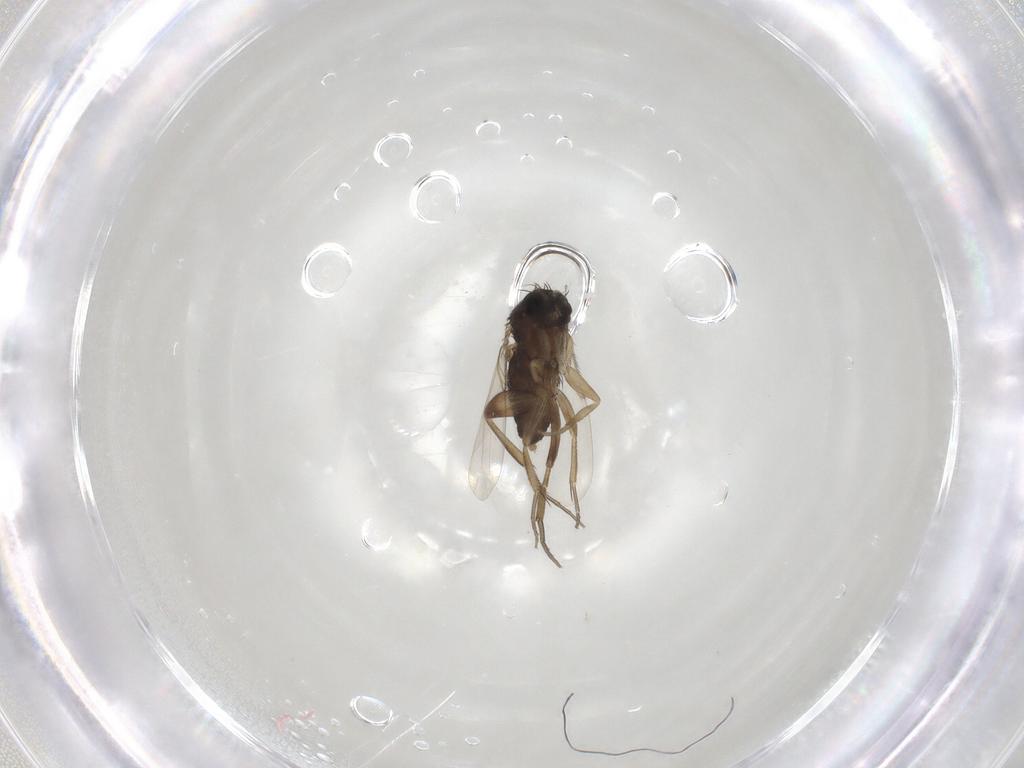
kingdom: Animalia
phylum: Arthropoda
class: Insecta
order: Diptera
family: Phoridae
